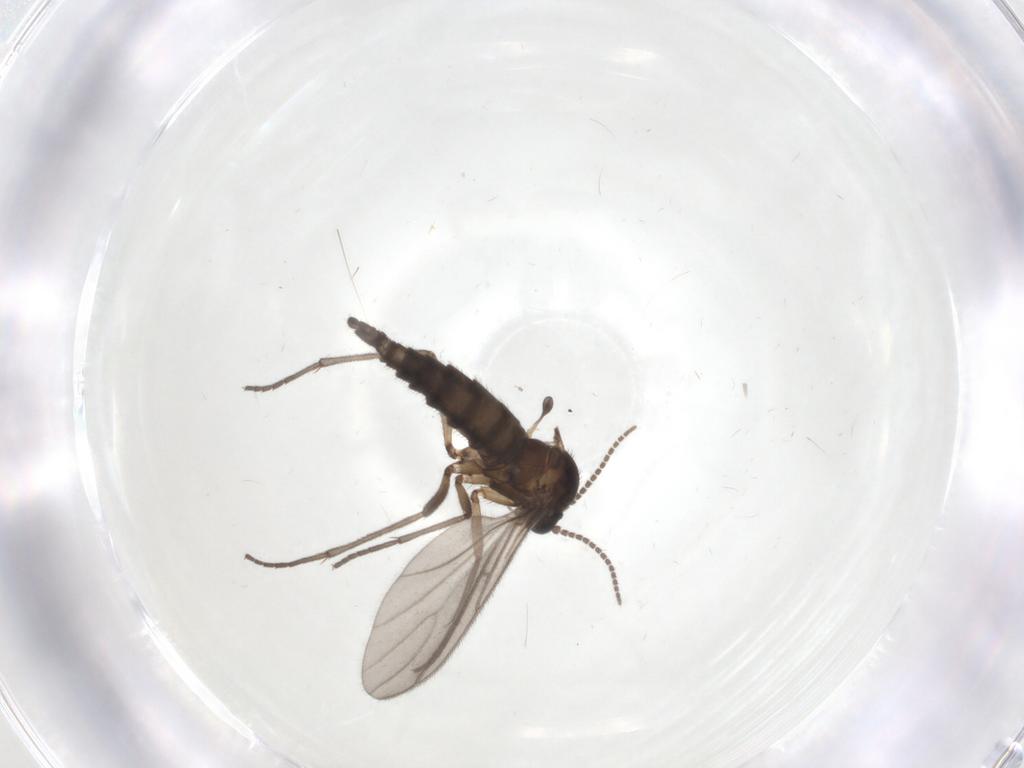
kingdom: Animalia
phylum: Arthropoda
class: Insecta
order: Diptera
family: Sciaridae
